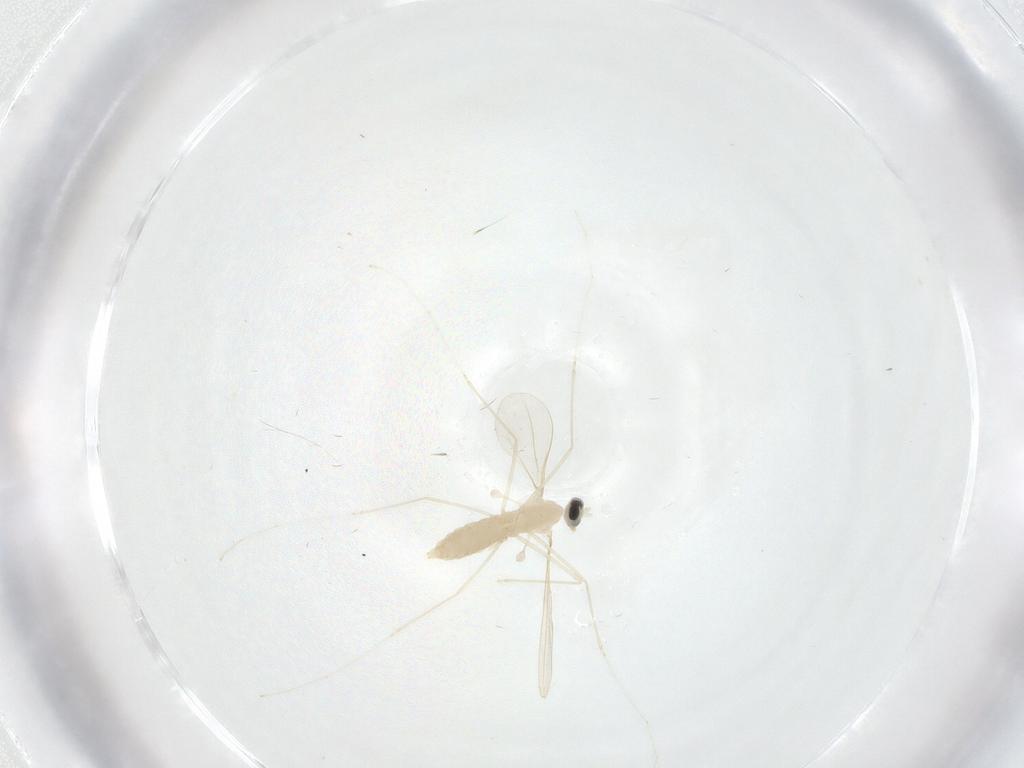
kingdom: Animalia
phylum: Arthropoda
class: Insecta
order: Diptera
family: Cecidomyiidae
